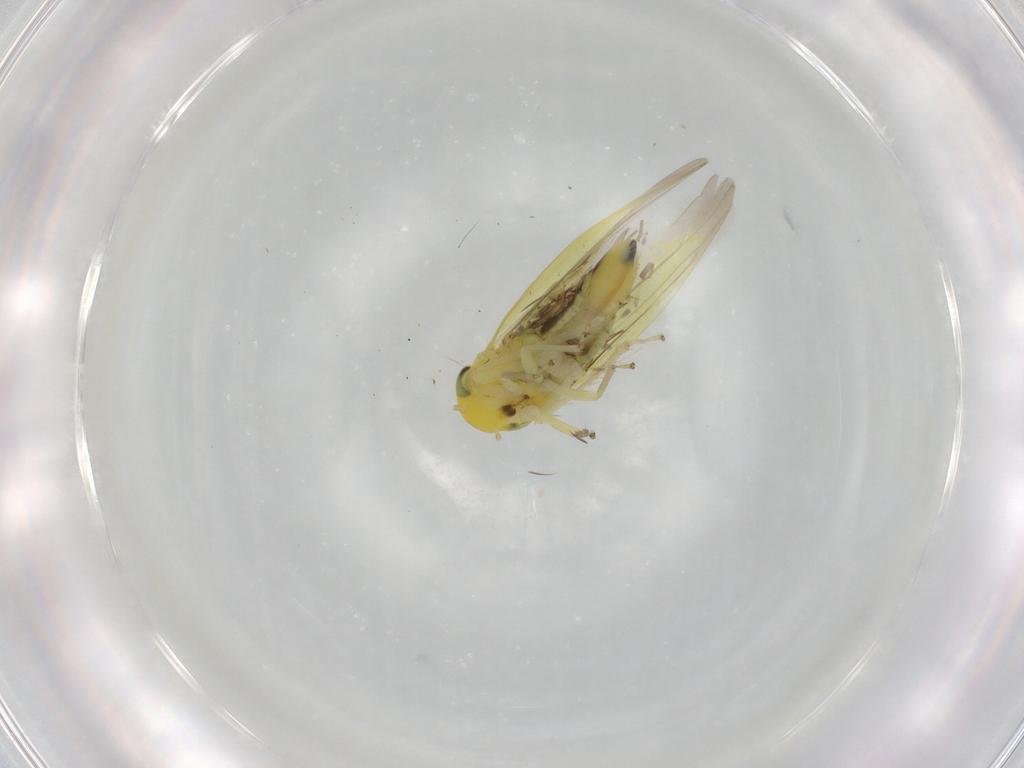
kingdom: Animalia
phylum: Arthropoda
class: Insecta
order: Hemiptera
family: Cicadellidae
